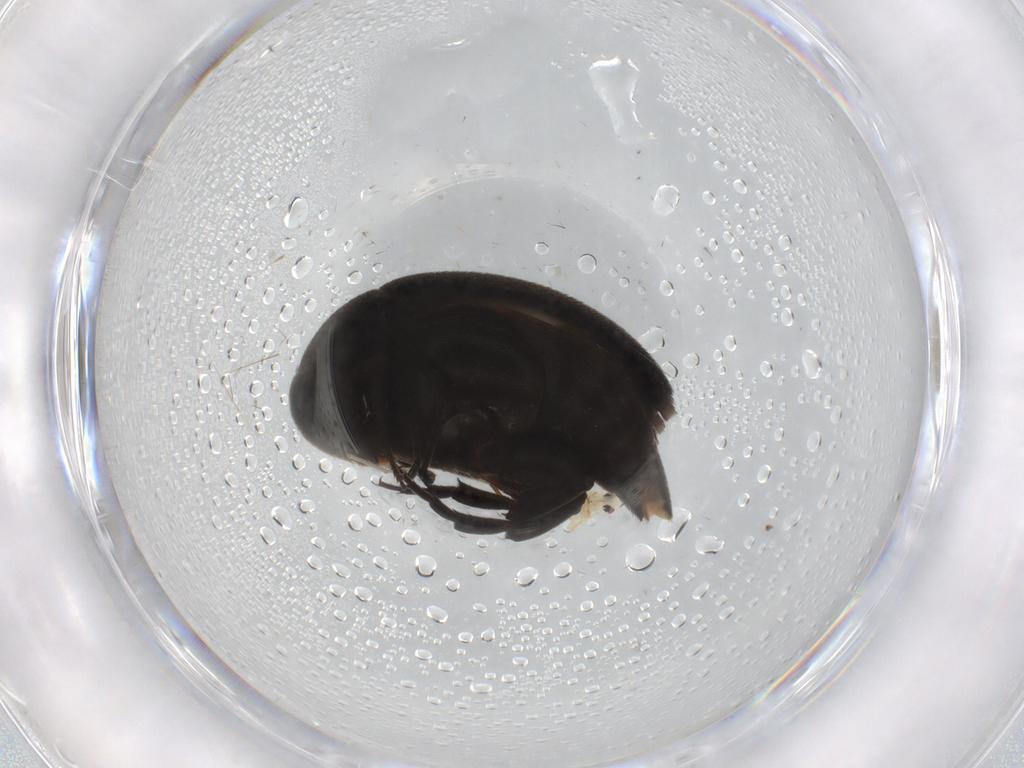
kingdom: Animalia
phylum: Arthropoda
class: Insecta
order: Coleoptera
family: Mordellidae
